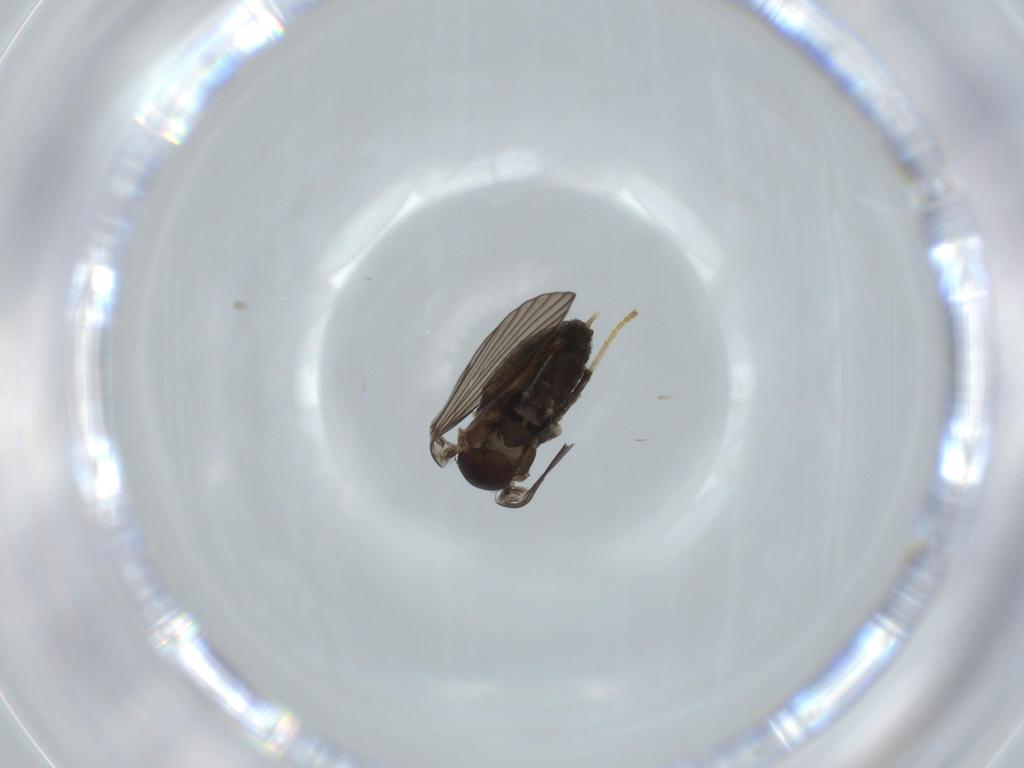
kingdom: Animalia
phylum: Arthropoda
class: Insecta
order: Diptera
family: Psychodidae
